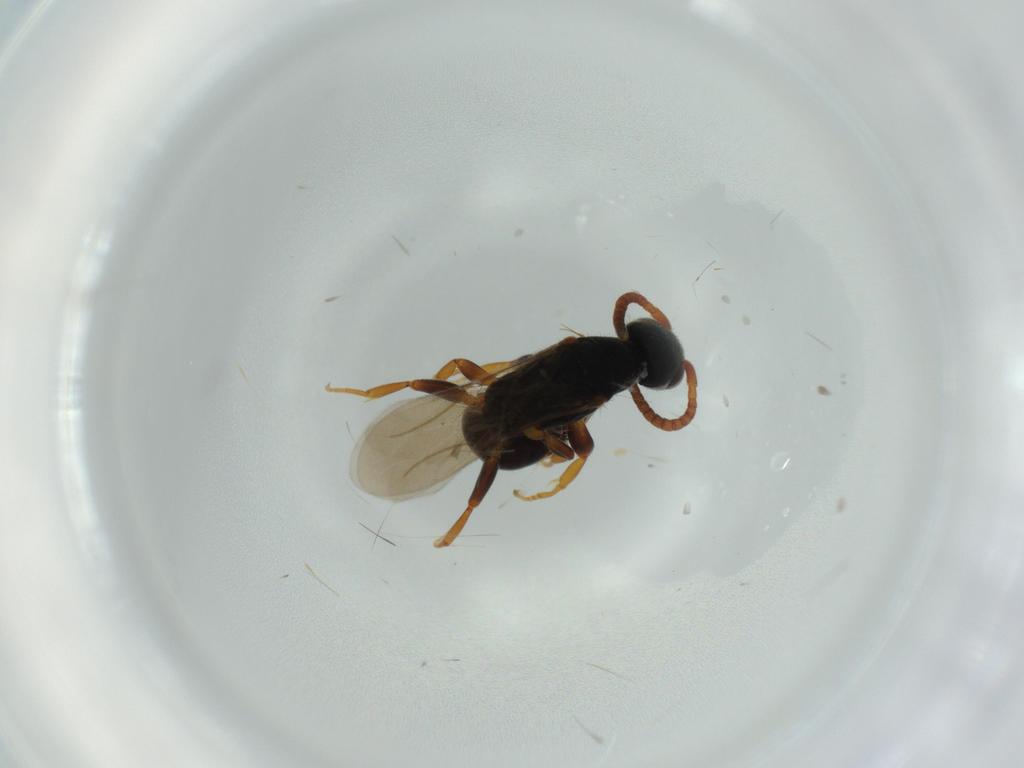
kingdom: Animalia
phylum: Arthropoda
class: Insecta
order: Hymenoptera
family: Bethylidae
